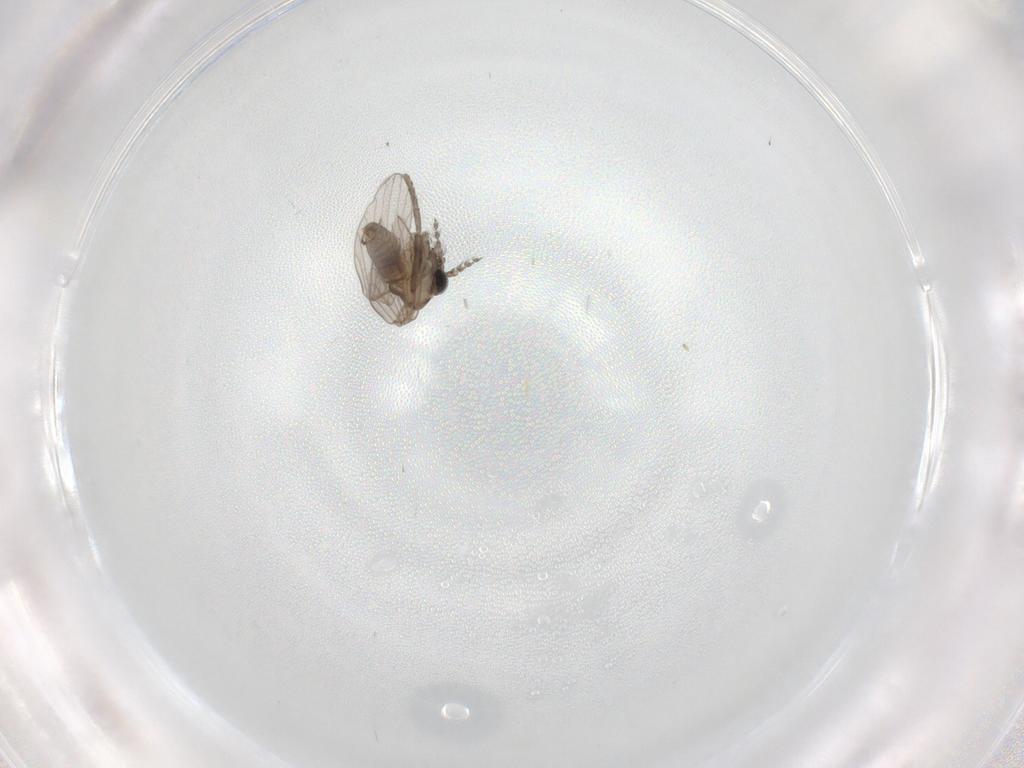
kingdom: Animalia
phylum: Arthropoda
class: Insecta
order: Diptera
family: Psychodidae
